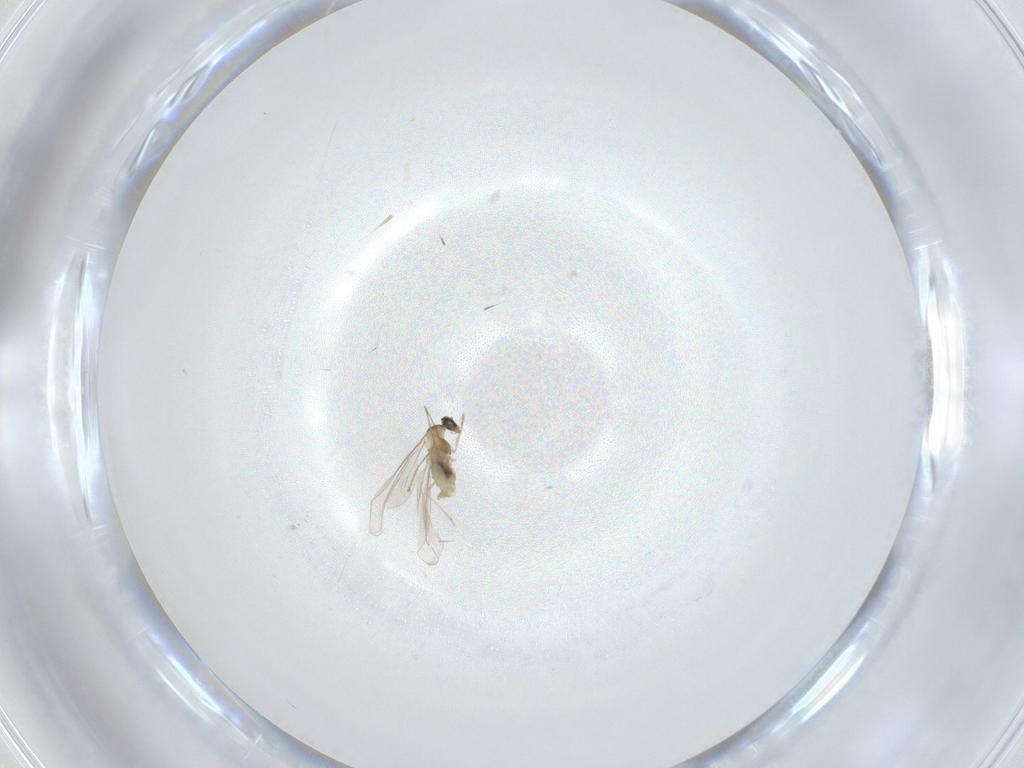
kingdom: Animalia
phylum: Arthropoda
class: Insecta
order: Diptera
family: Cecidomyiidae
